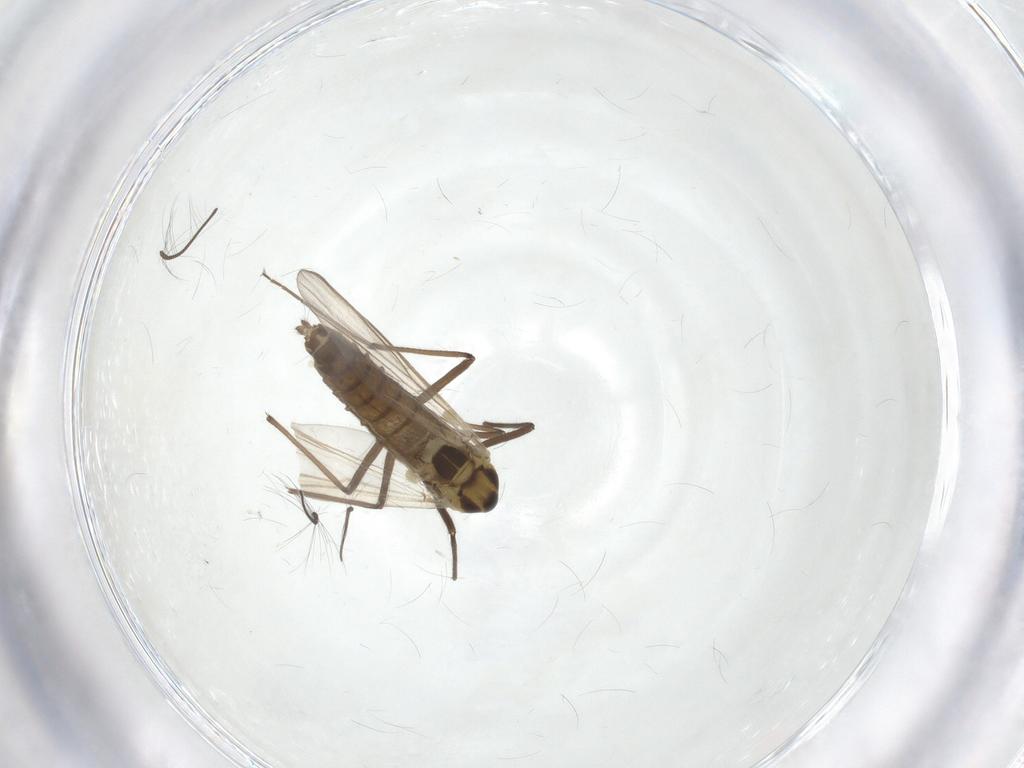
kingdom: Animalia
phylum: Arthropoda
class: Insecta
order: Diptera
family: Chironomidae
